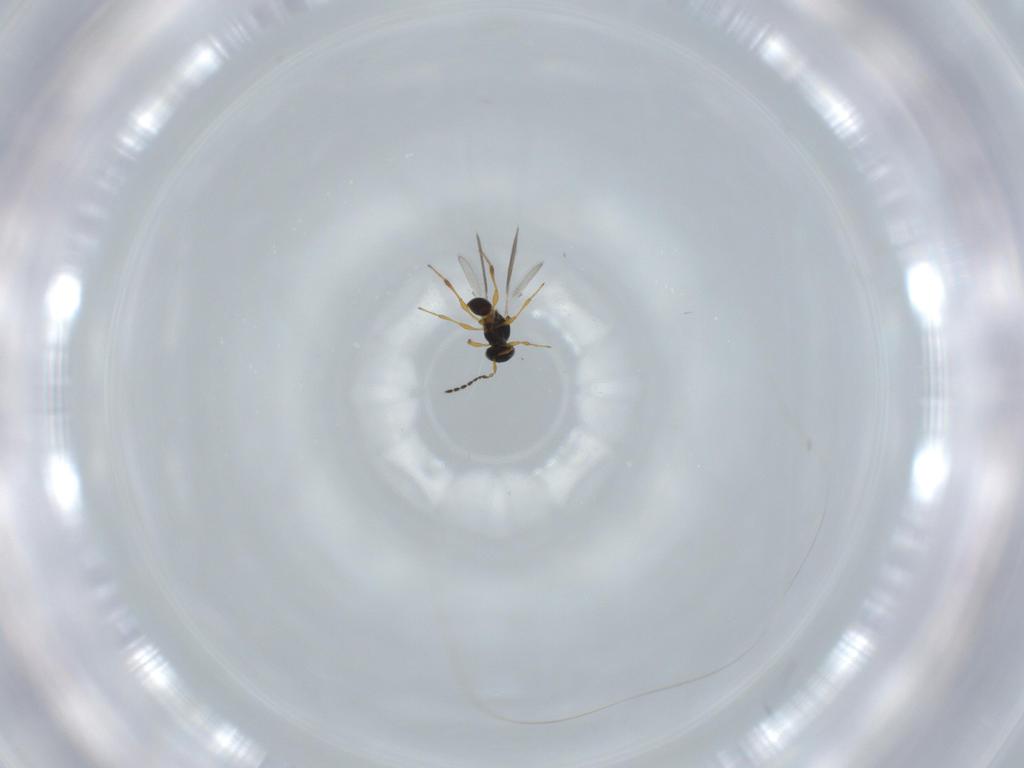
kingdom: Animalia
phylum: Arthropoda
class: Insecta
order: Hymenoptera
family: Platygastridae
